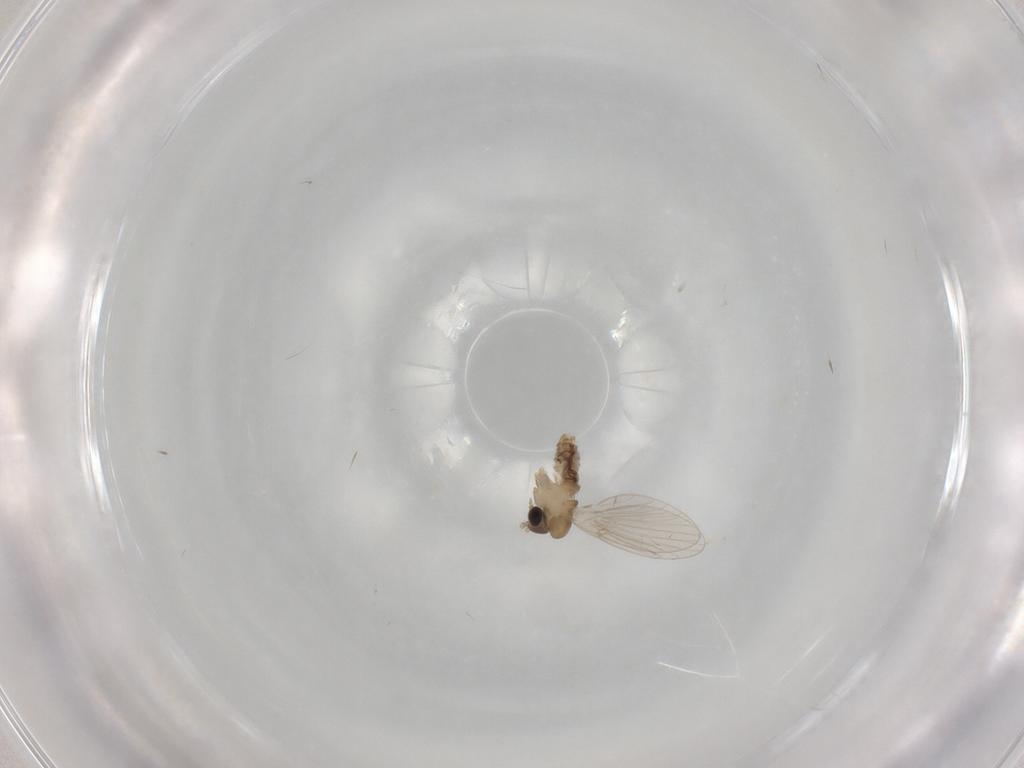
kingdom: Animalia
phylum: Arthropoda
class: Insecta
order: Diptera
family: Psychodidae
